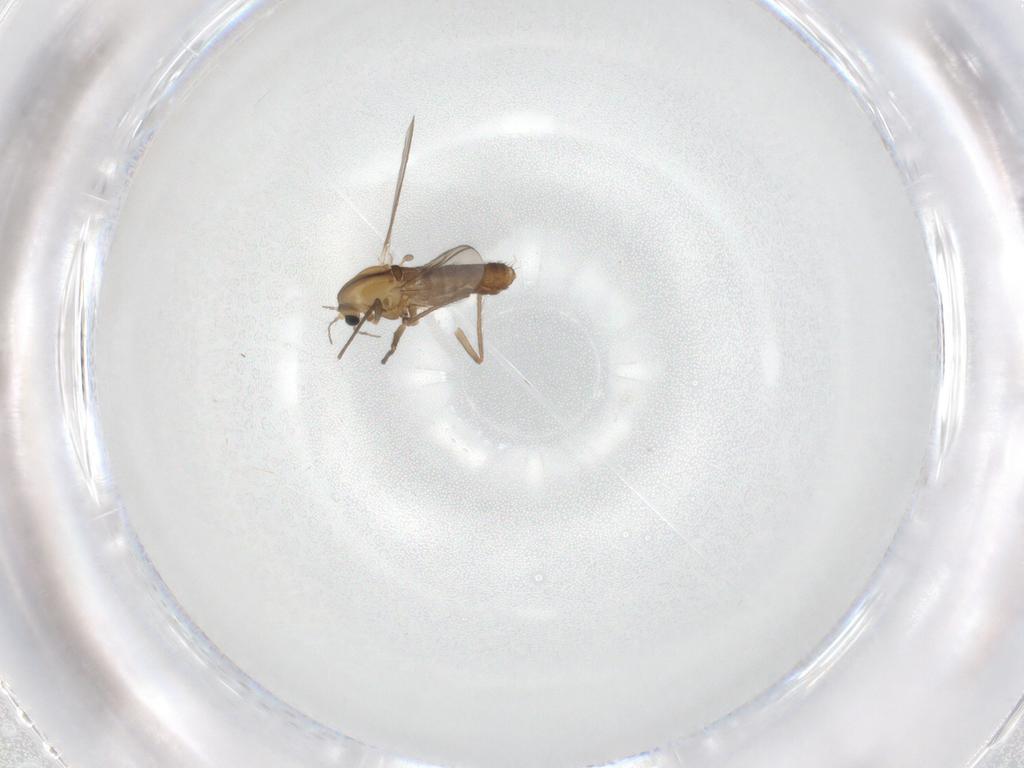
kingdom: Animalia
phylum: Arthropoda
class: Insecta
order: Diptera
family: Chironomidae
